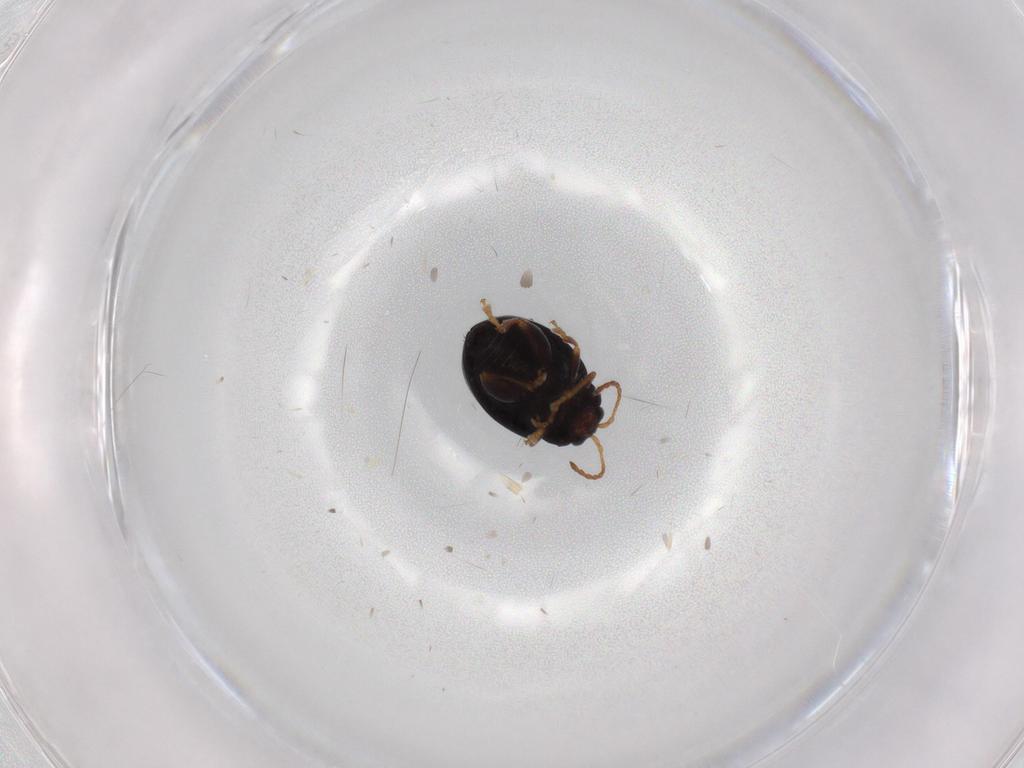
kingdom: Animalia
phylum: Arthropoda
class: Insecta
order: Coleoptera
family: Chrysomelidae
